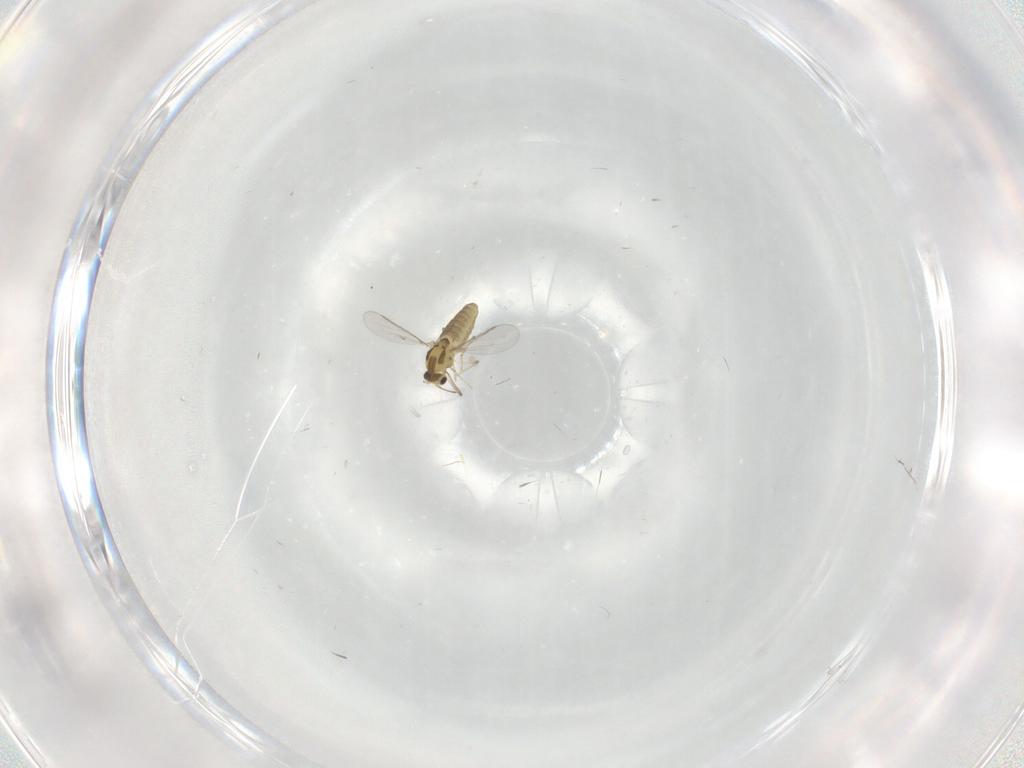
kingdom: Animalia
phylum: Arthropoda
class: Insecta
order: Diptera
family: Chironomidae
